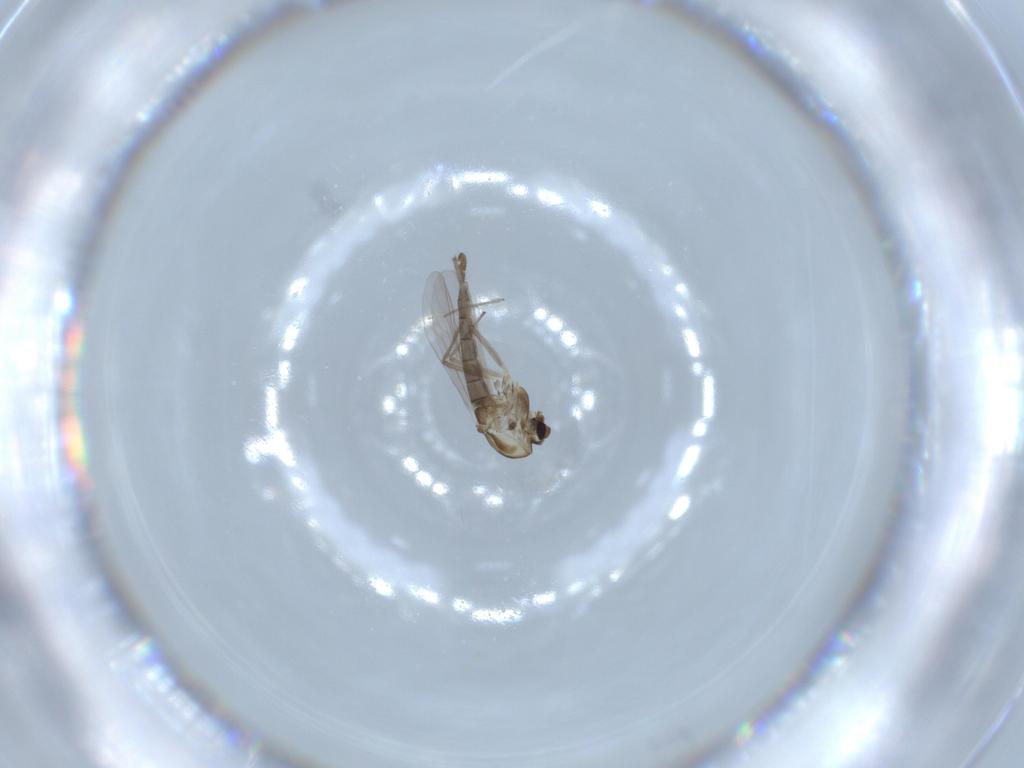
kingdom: Animalia
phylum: Arthropoda
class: Insecta
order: Diptera
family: Chironomidae
